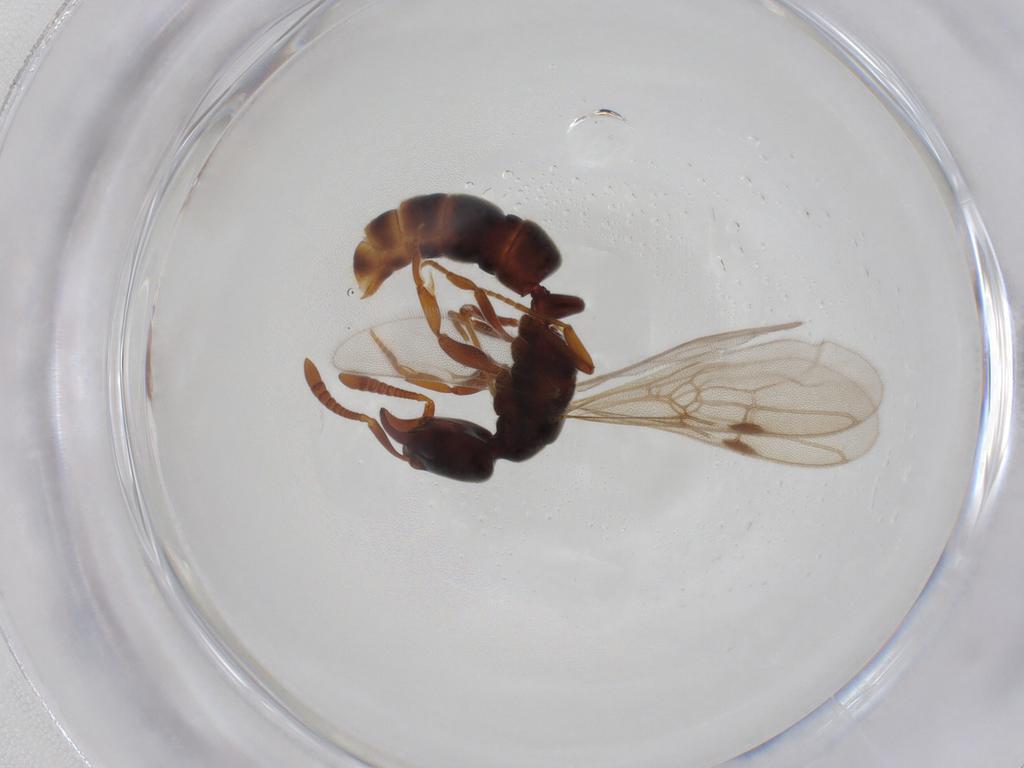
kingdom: Animalia
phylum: Arthropoda
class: Insecta
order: Hymenoptera
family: Formicidae
